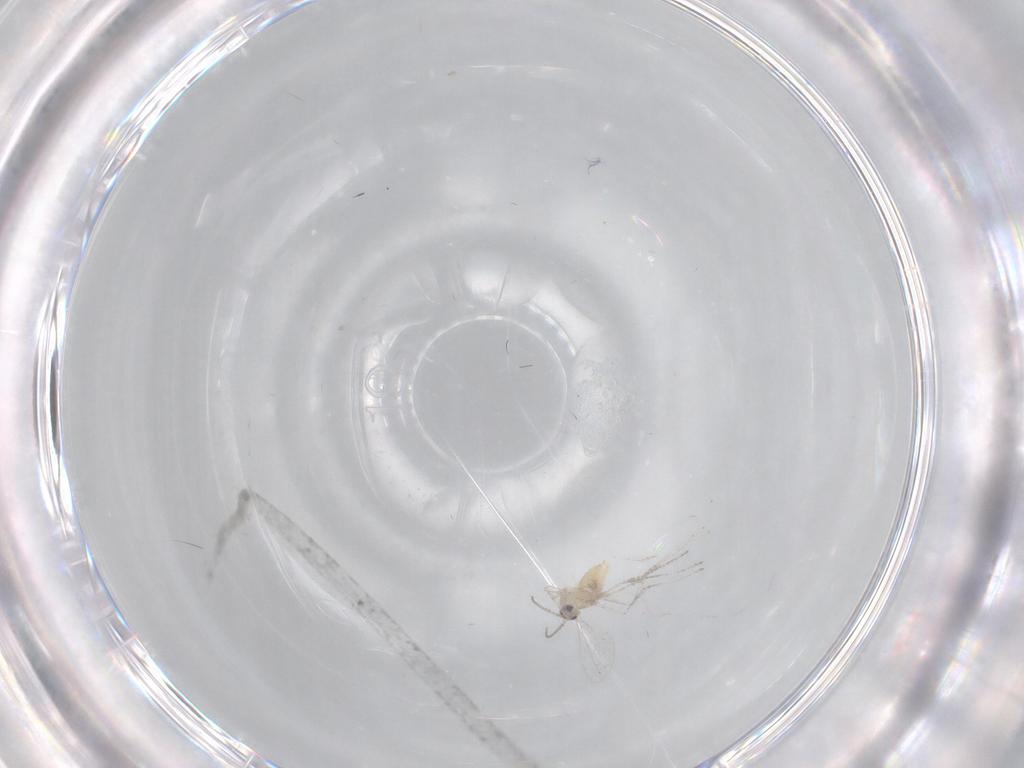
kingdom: Animalia
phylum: Arthropoda
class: Insecta
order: Diptera
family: Cecidomyiidae
